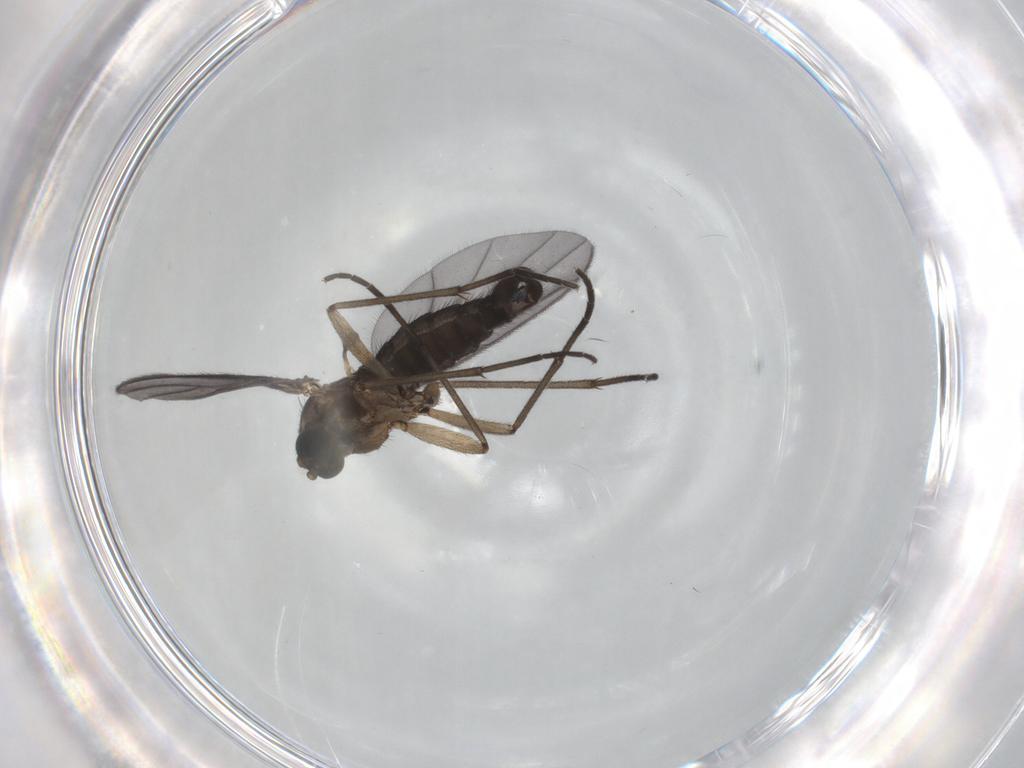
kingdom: Animalia
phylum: Arthropoda
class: Insecta
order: Diptera
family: Sciaridae
